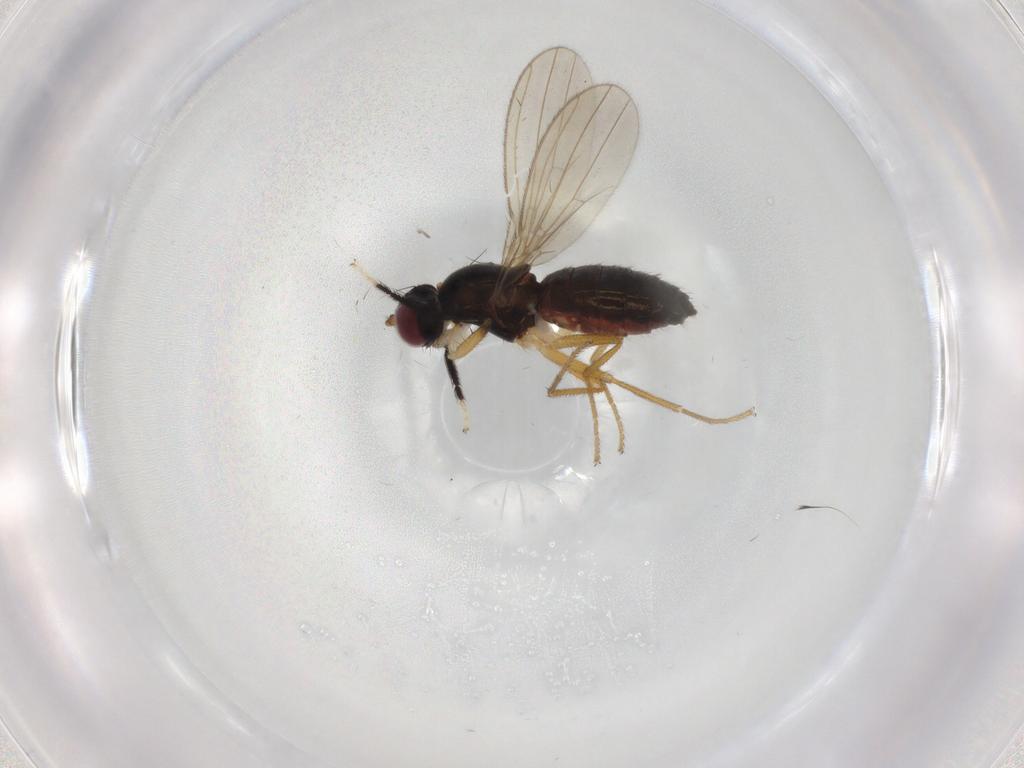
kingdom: Animalia
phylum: Arthropoda
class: Insecta
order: Diptera
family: Anthomyzidae
